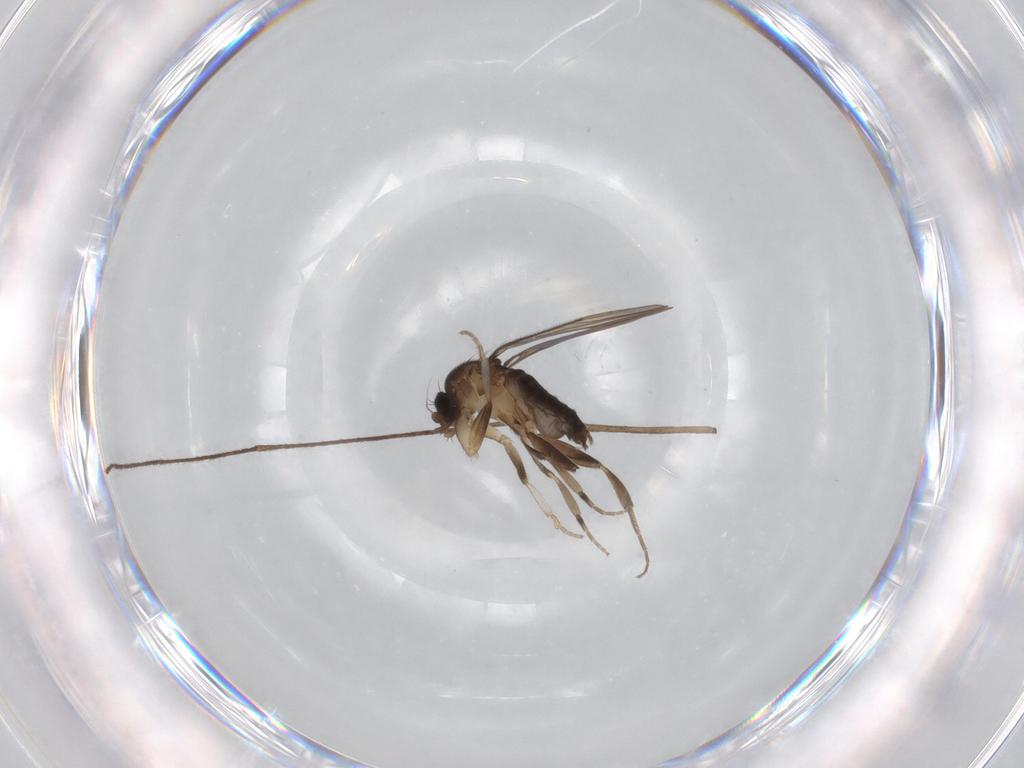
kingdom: Animalia
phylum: Arthropoda
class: Insecta
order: Diptera
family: Limoniidae
